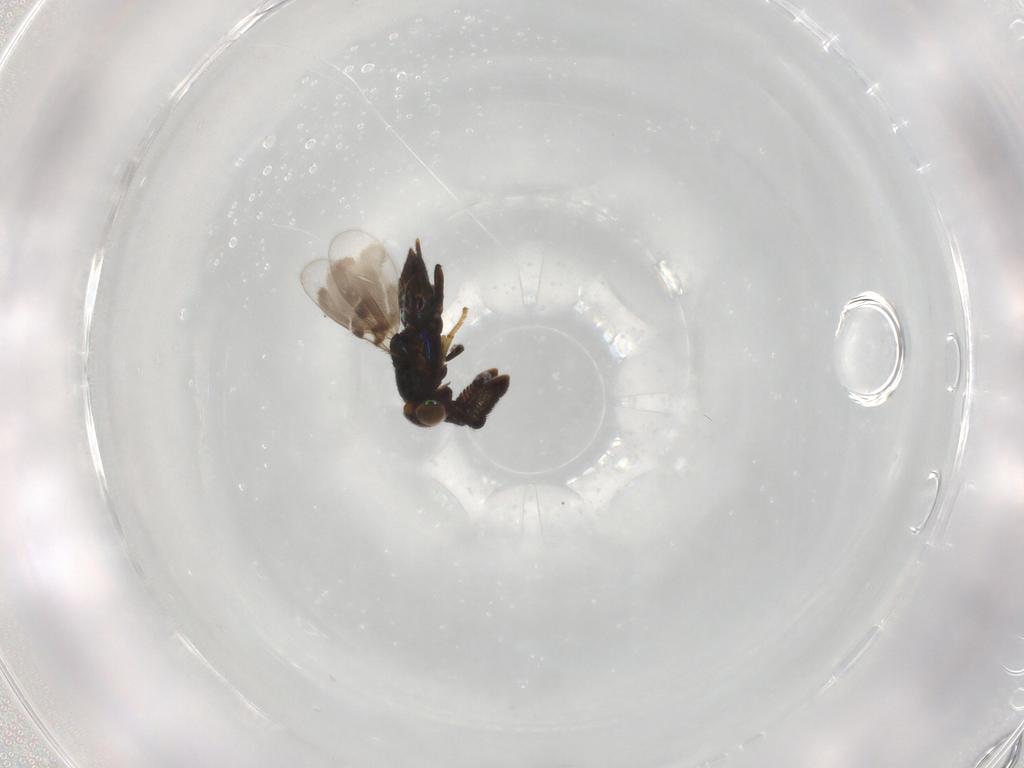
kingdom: Animalia
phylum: Arthropoda
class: Insecta
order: Hymenoptera
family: Encyrtidae
